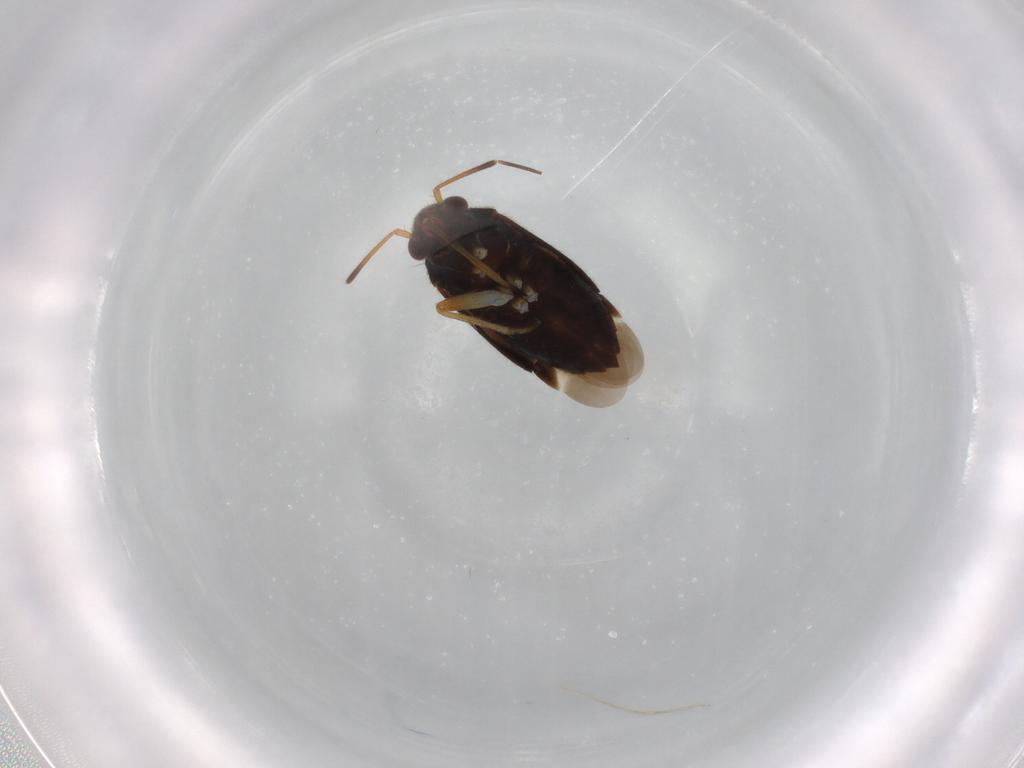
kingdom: Animalia
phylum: Arthropoda
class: Insecta
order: Hemiptera
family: Miridae
